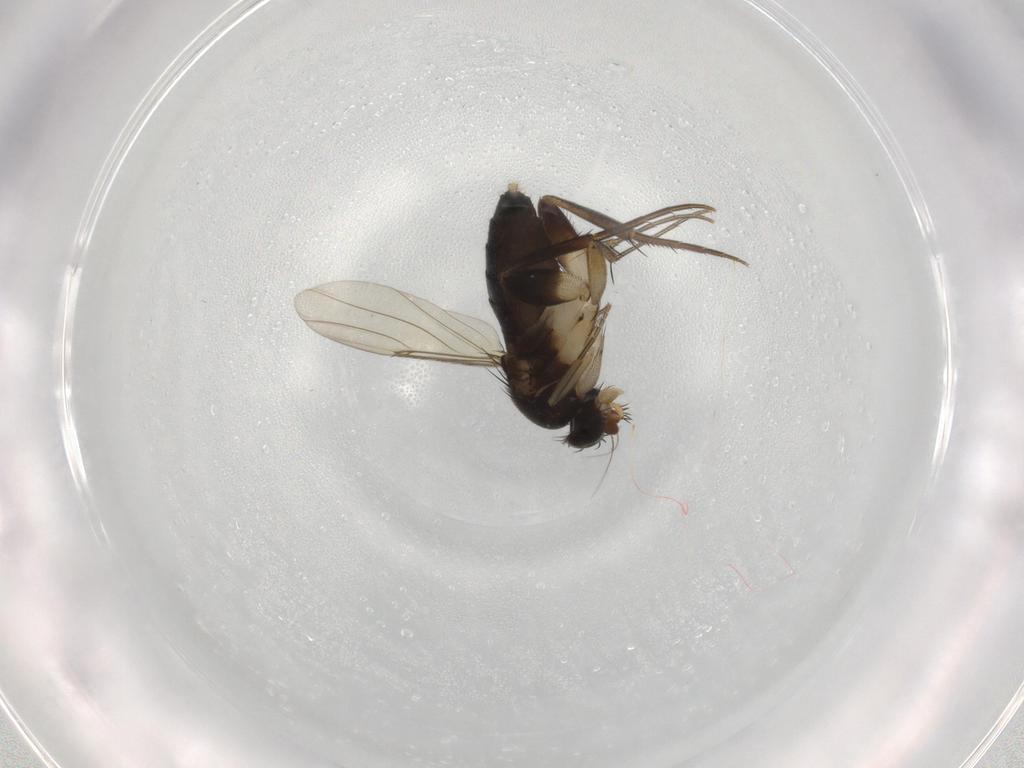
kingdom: Animalia
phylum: Arthropoda
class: Insecta
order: Diptera
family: Phoridae
